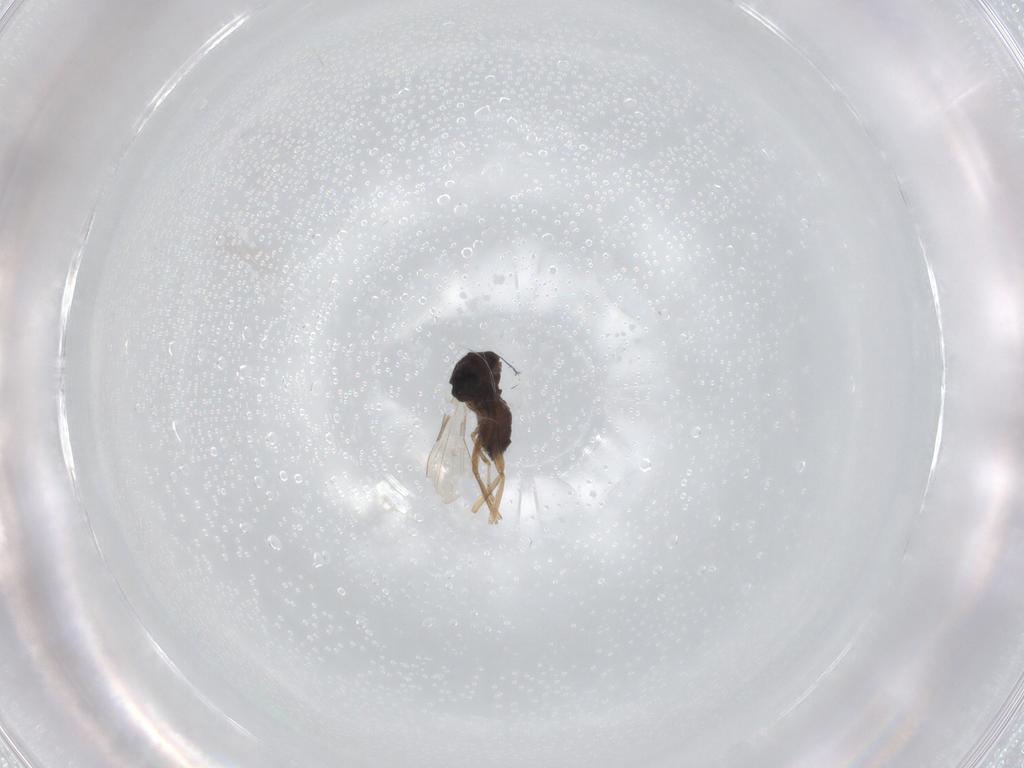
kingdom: Animalia
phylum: Arthropoda
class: Insecta
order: Diptera
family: Ceratopogonidae
